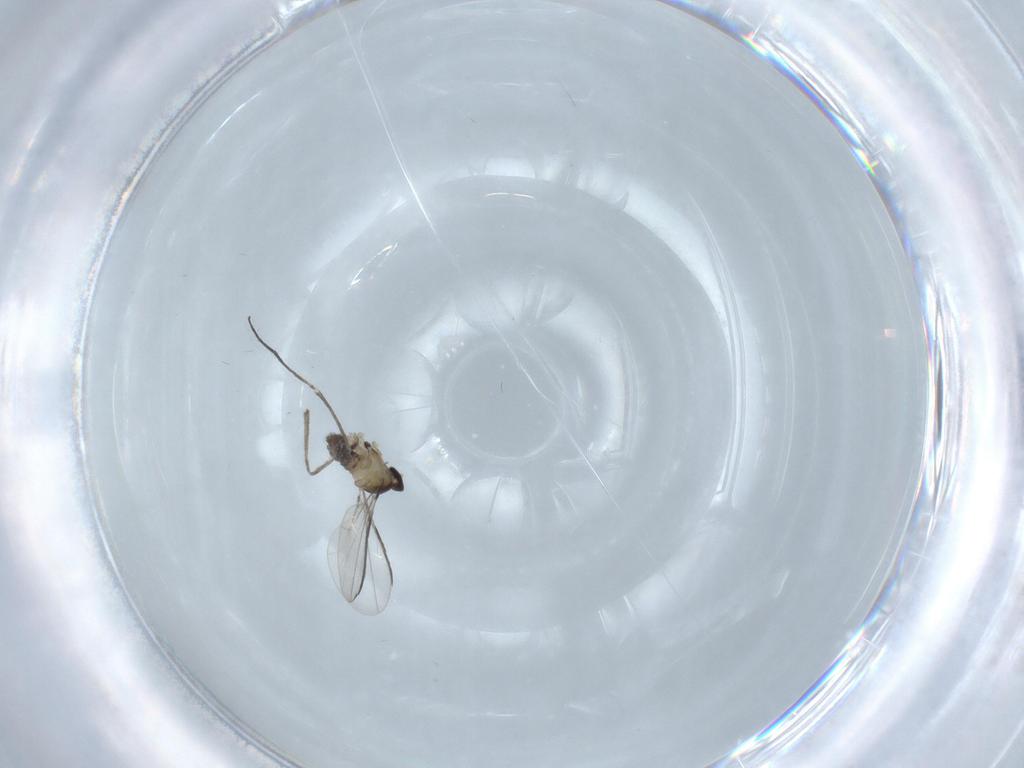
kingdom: Animalia
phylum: Arthropoda
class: Insecta
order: Diptera
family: Cecidomyiidae
